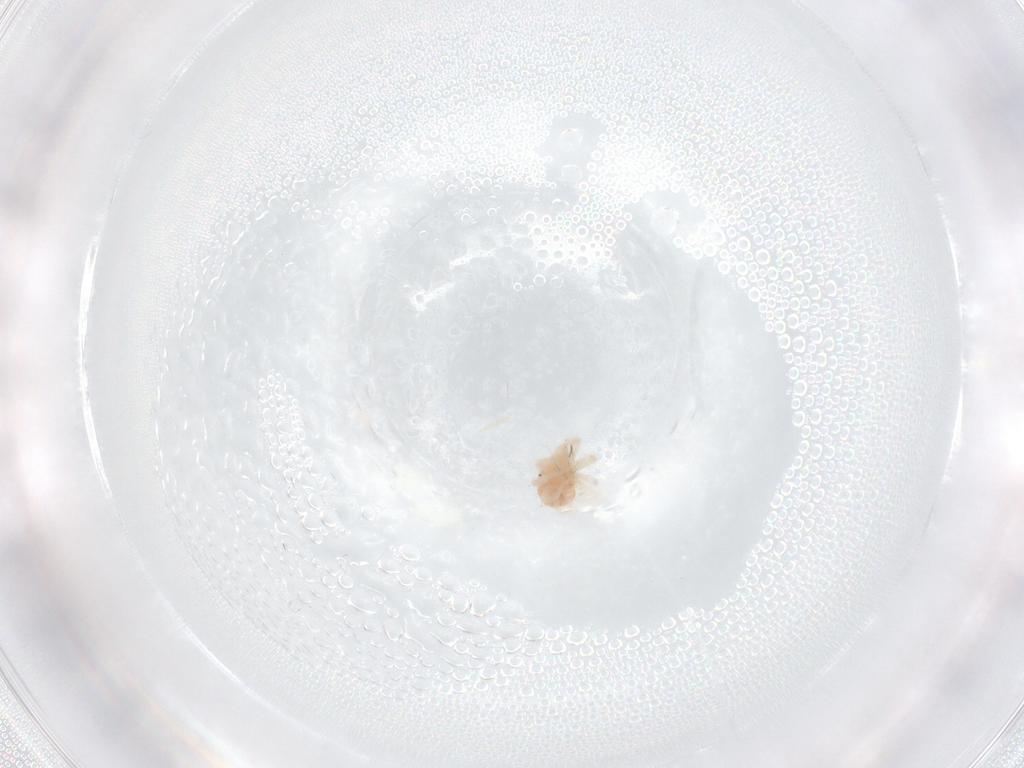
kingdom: Animalia
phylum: Arthropoda
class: Arachnida
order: Trombidiformes
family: Anystidae
